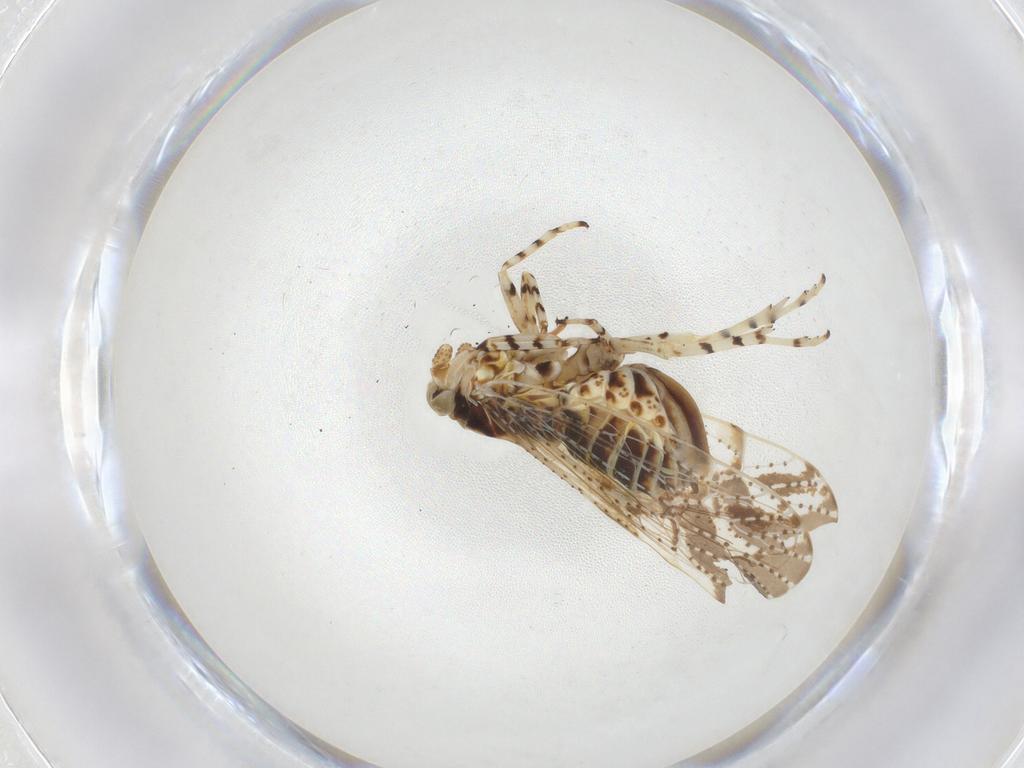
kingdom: Animalia
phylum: Arthropoda
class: Insecta
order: Hemiptera
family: Delphacidae
